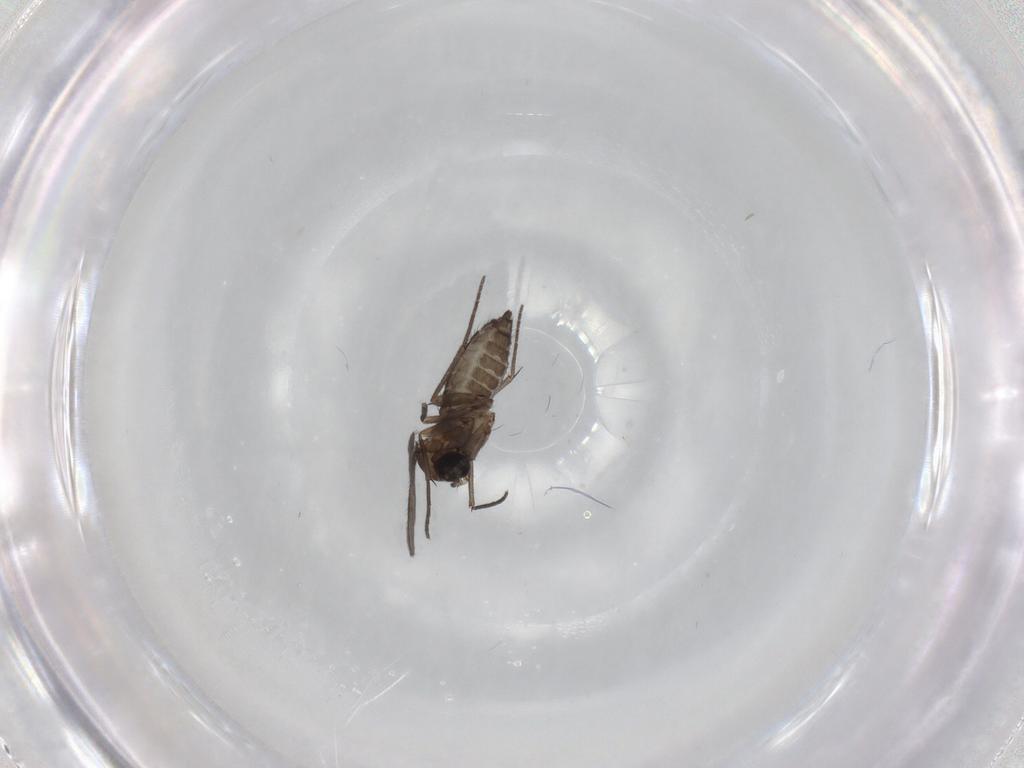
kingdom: Animalia
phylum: Arthropoda
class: Insecta
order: Diptera
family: Sciaridae
